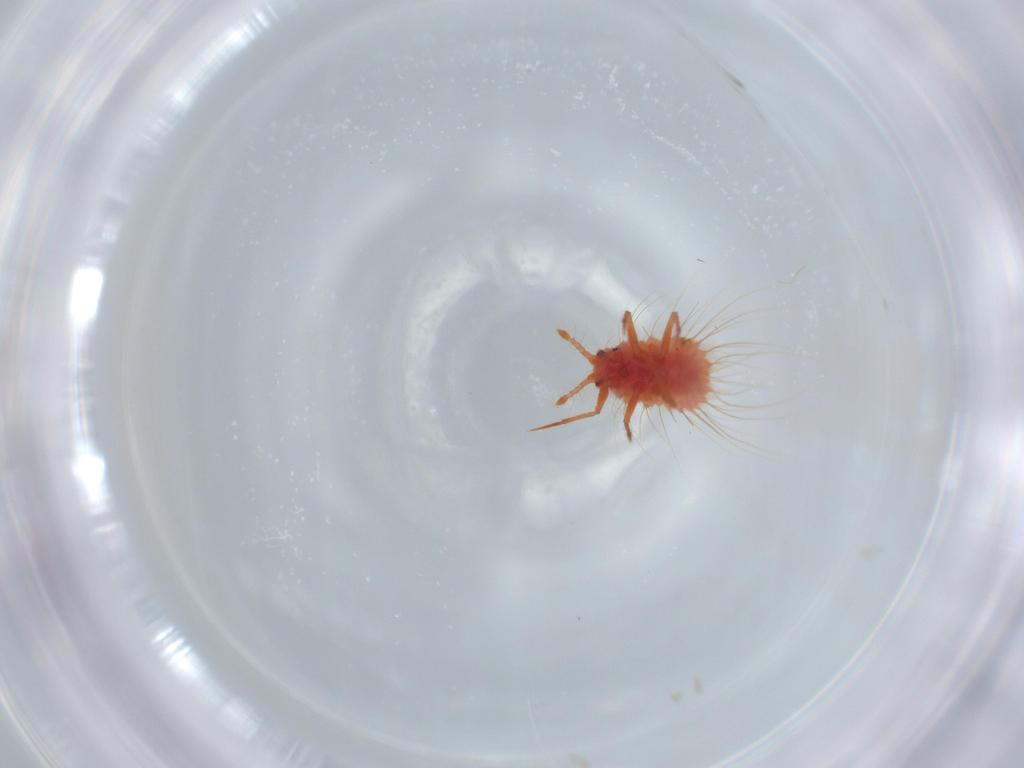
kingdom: Animalia
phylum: Arthropoda
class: Insecta
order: Hemiptera
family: Monophlebidae
